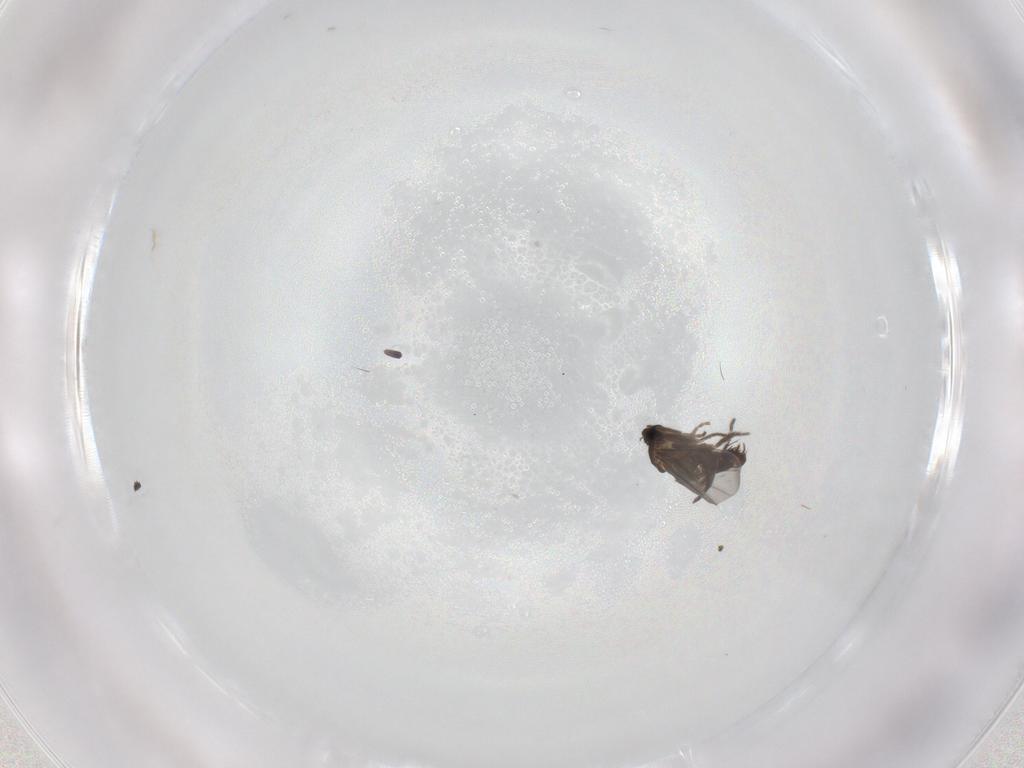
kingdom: Animalia
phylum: Arthropoda
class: Insecta
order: Diptera
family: Phoridae
